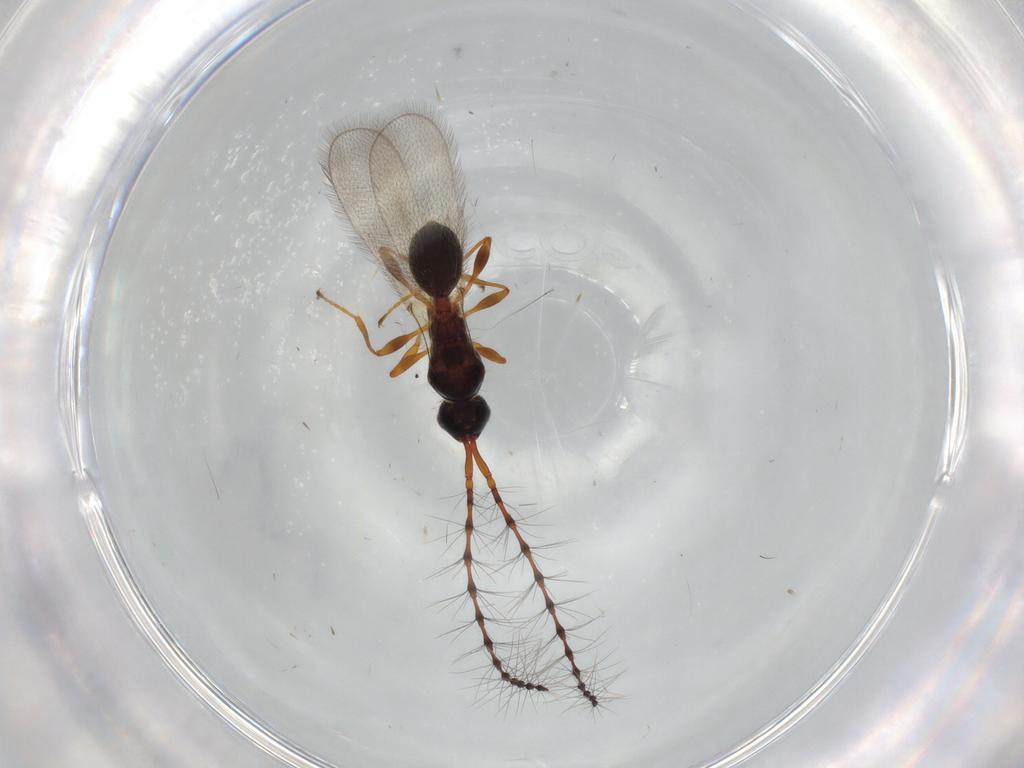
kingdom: Animalia
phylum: Arthropoda
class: Insecta
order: Hymenoptera
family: Diapriidae
